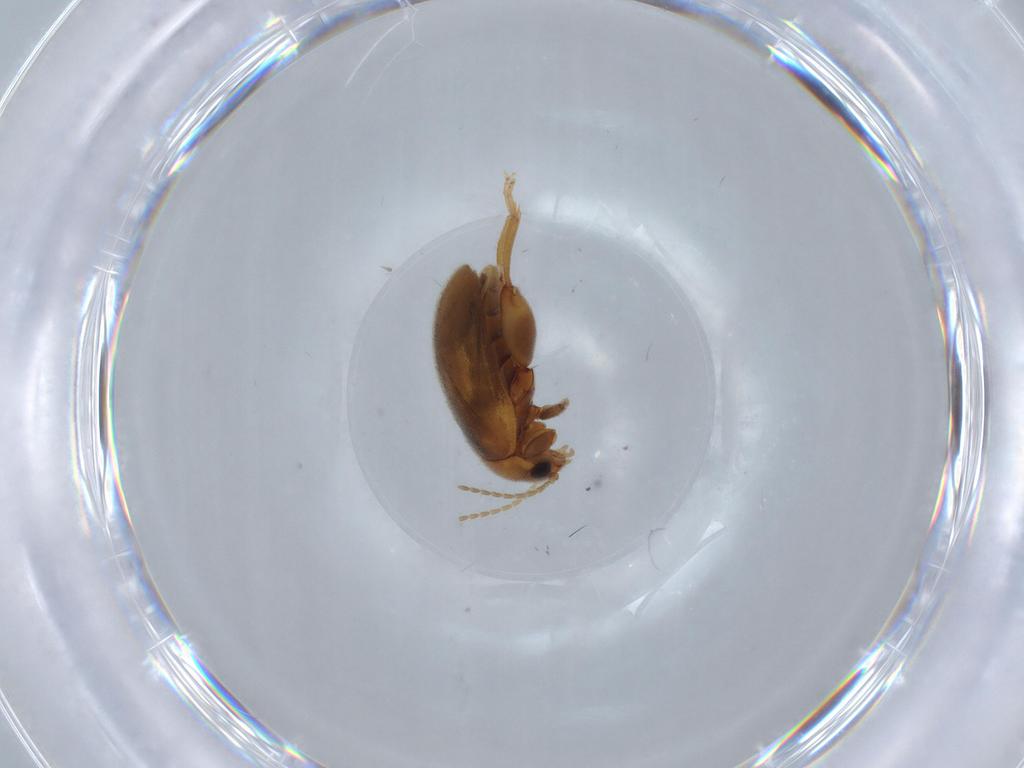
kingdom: Animalia
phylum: Arthropoda
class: Insecta
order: Coleoptera
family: Scirtidae
